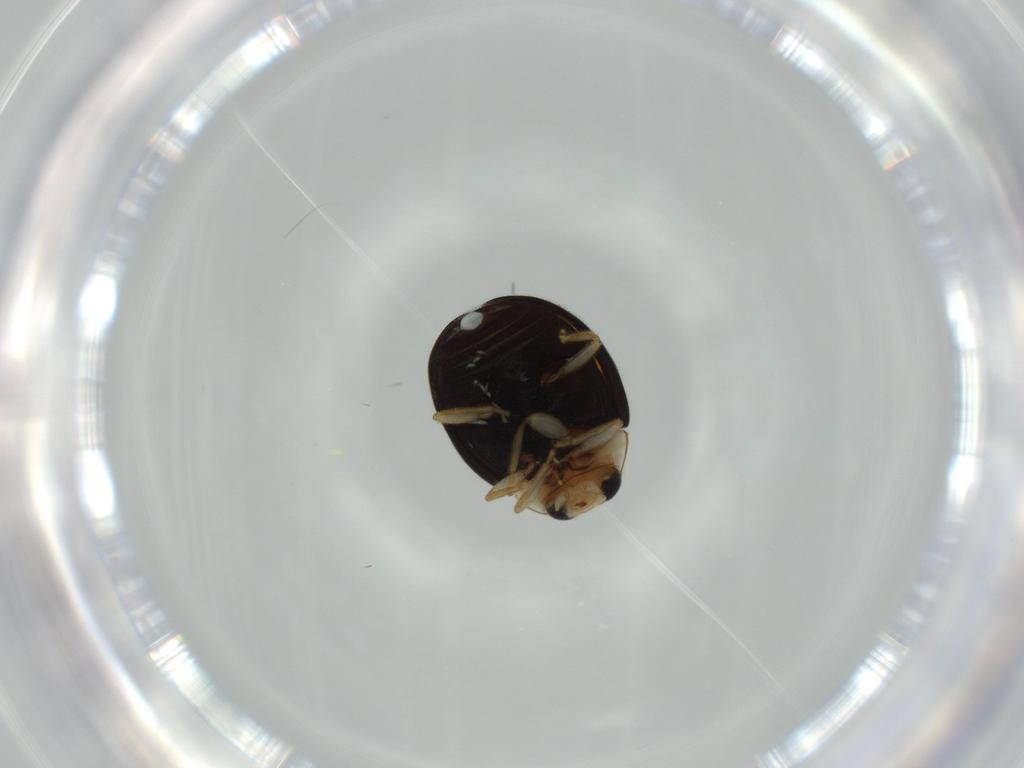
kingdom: Animalia
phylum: Arthropoda
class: Insecta
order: Coleoptera
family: Coccinellidae
